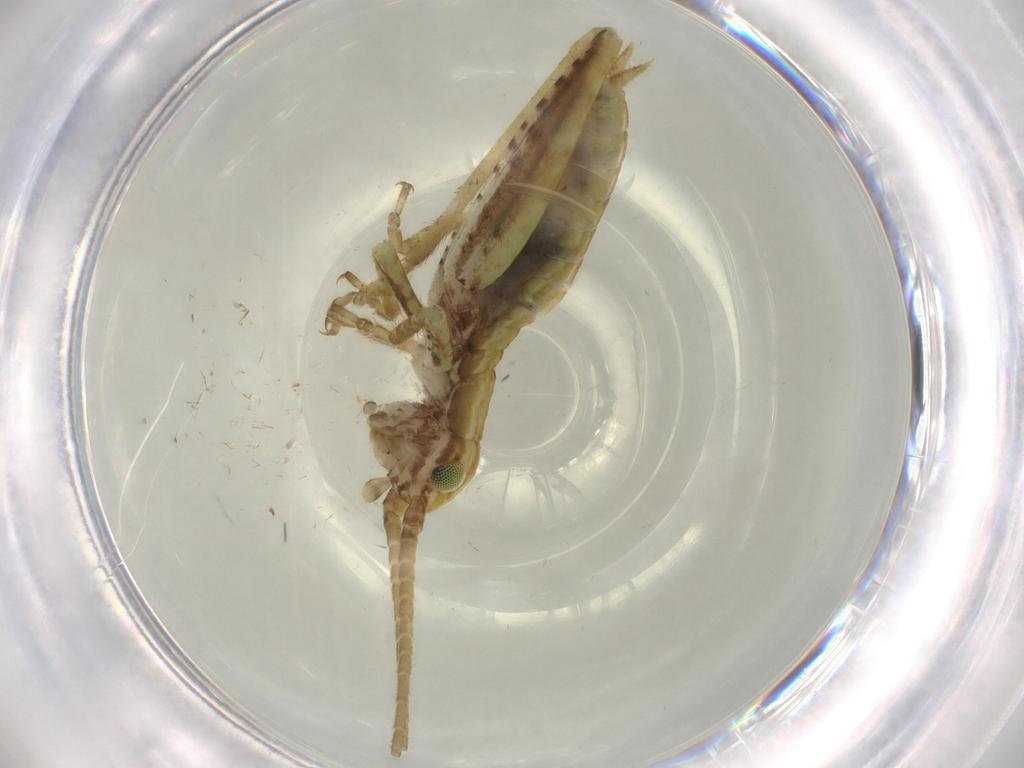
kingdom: Animalia
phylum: Arthropoda
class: Insecta
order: Orthoptera
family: Gryllidae
